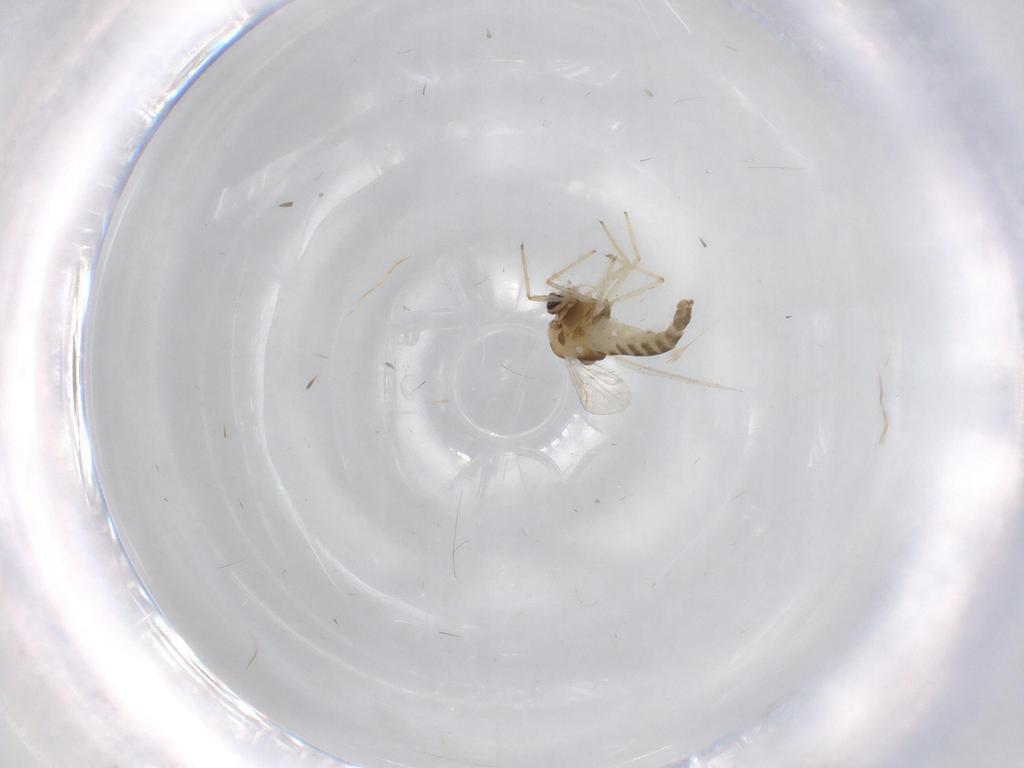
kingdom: Animalia
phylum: Arthropoda
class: Insecta
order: Diptera
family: Chironomidae
